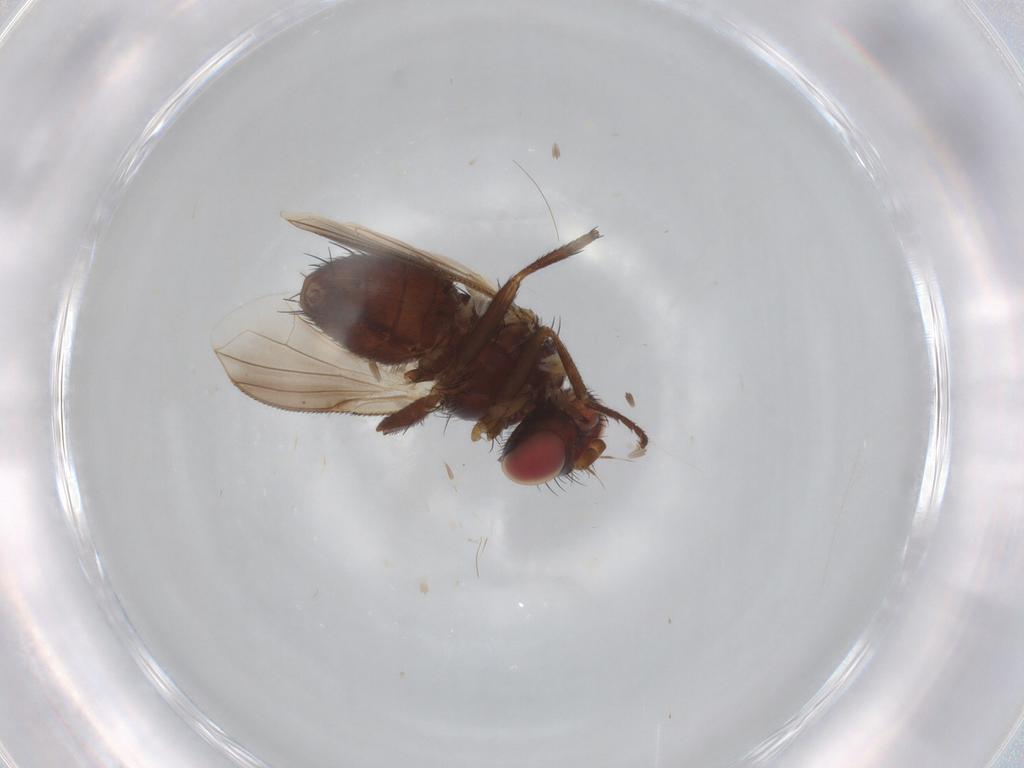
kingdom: Animalia
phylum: Arthropoda
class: Insecta
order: Diptera
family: Tachinidae
